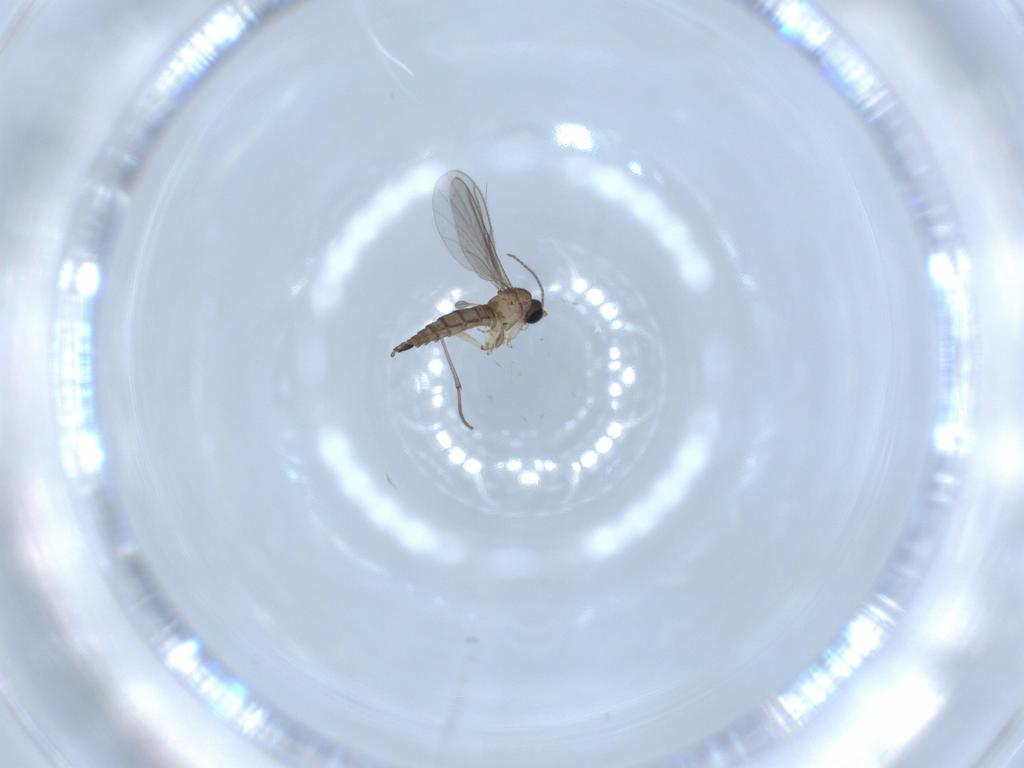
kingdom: Animalia
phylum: Arthropoda
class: Insecta
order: Diptera
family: Sciaridae
